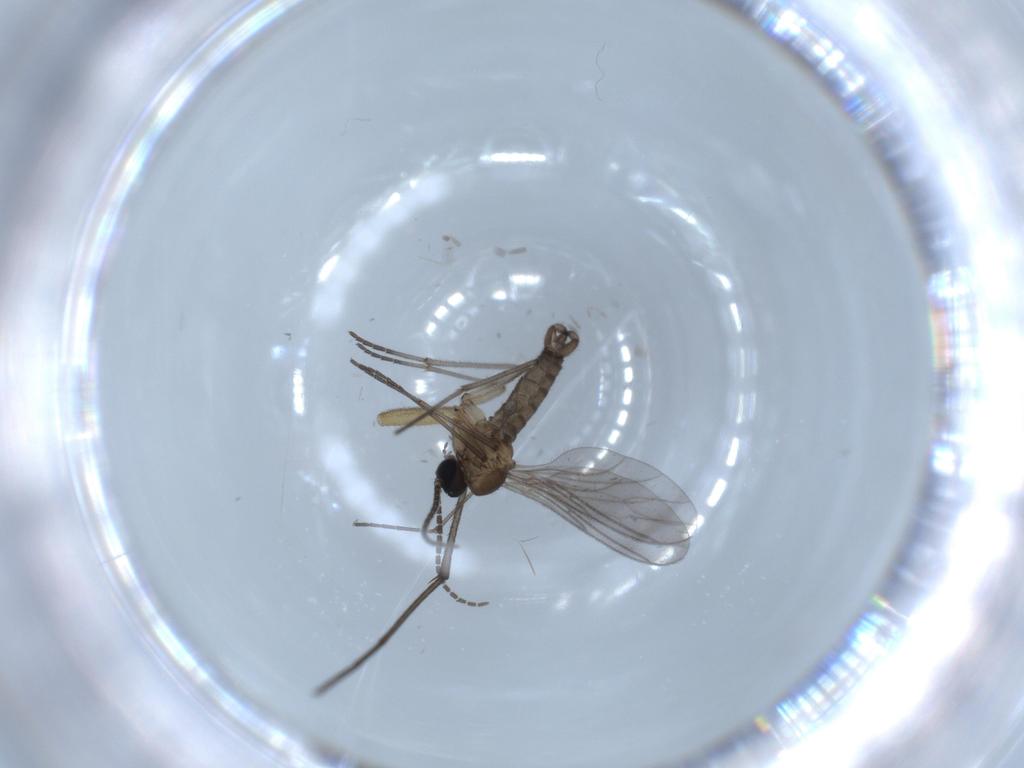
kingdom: Animalia
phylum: Arthropoda
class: Insecta
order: Diptera
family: Sciaridae
